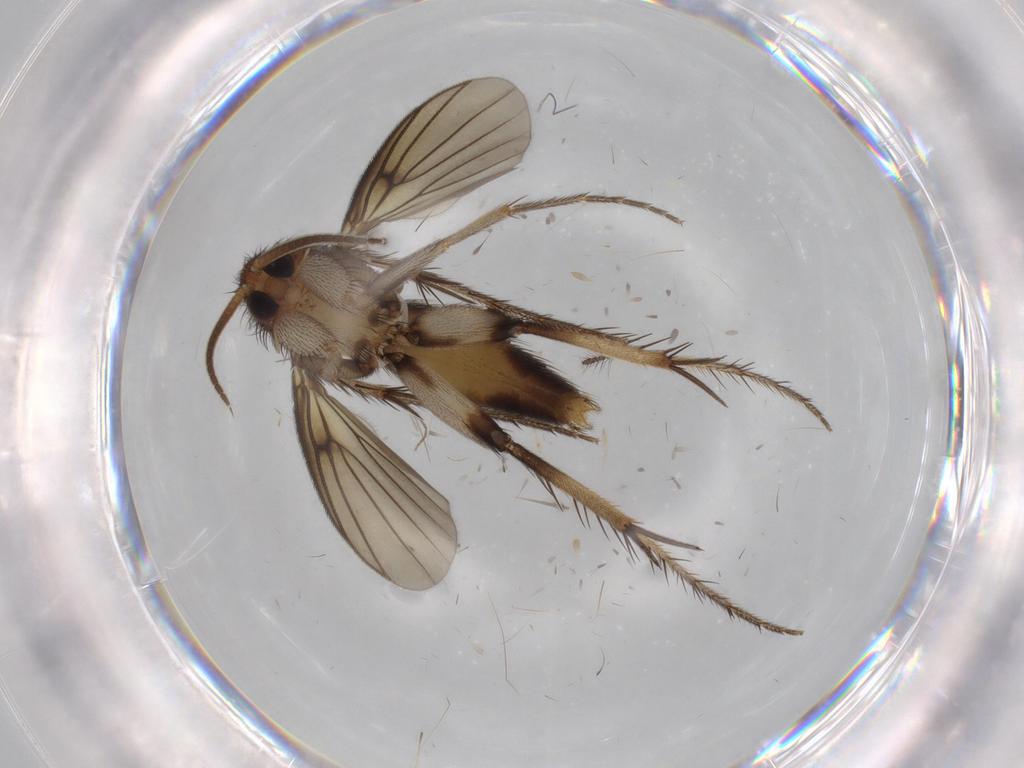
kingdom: Animalia
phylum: Arthropoda
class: Insecta
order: Diptera
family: Mycetophilidae
